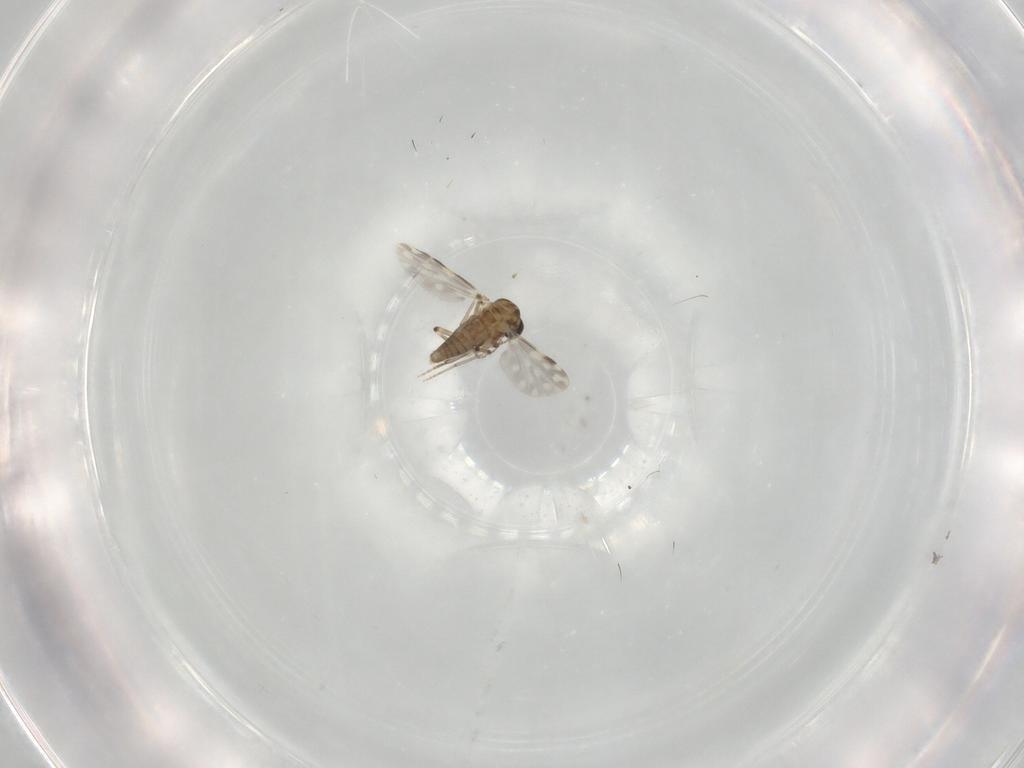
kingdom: Animalia
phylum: Arthropoda
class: Insecta
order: Diptera
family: Ceratopogonidae
